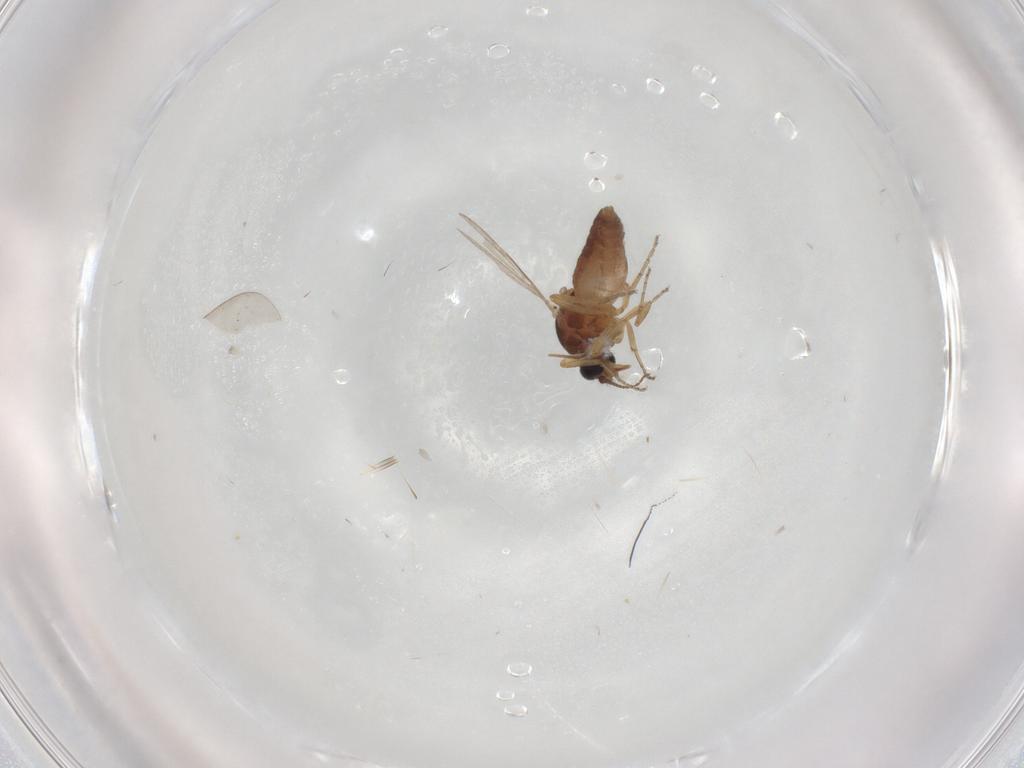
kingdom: Animalia
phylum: Arthropoda
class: Insecta
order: Diptera
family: Ceratopogonidae
